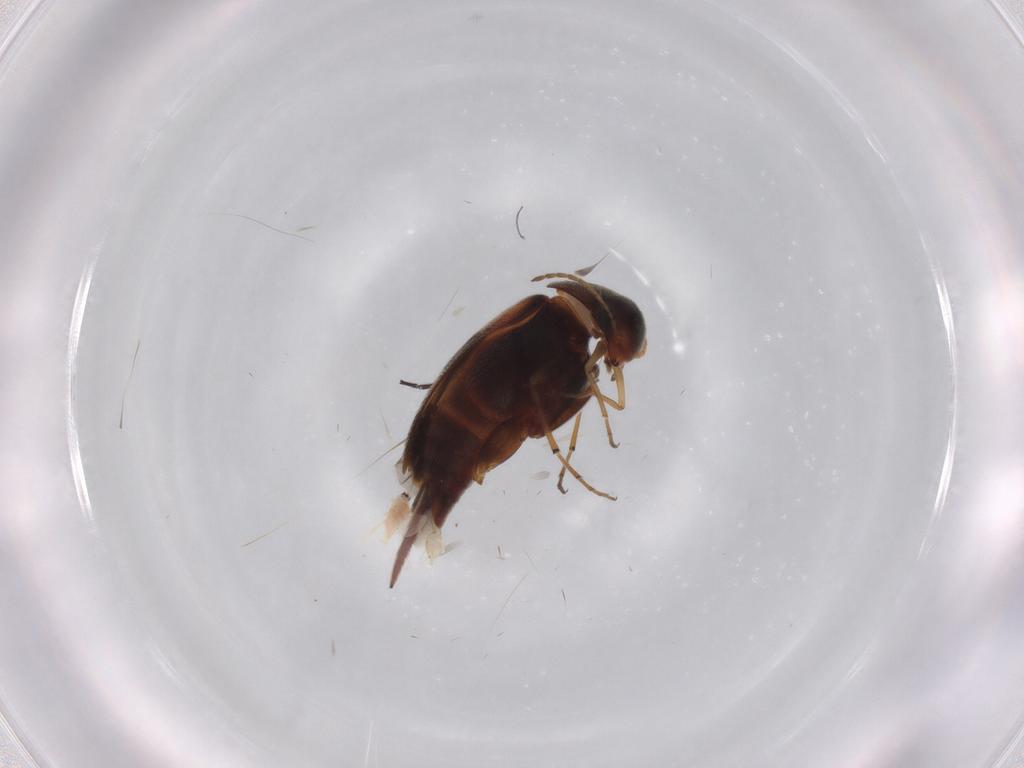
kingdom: Animalia
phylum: Arthropoda
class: Insecta
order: Coleoptera
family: Mordellidae
